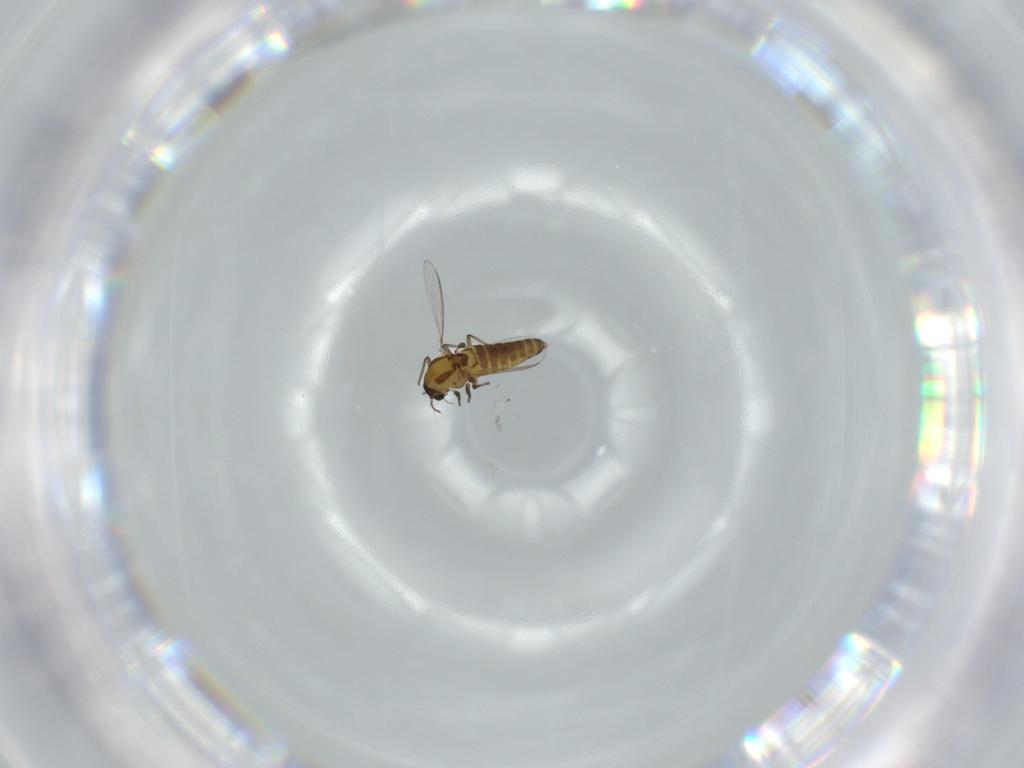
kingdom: Animalia
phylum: Arthropoda
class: Insecta
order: Diptera
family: Chironomidae
